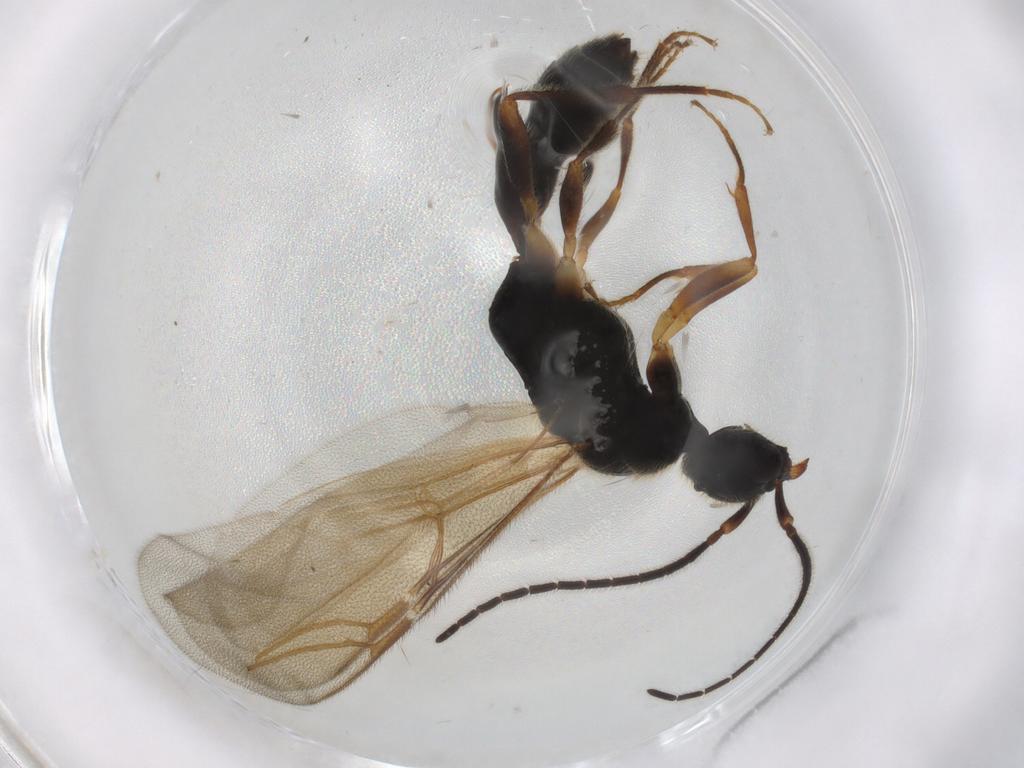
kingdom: Animalia
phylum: Arthropoda
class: Insecta
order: Hymenoptera
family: Bethylidae
